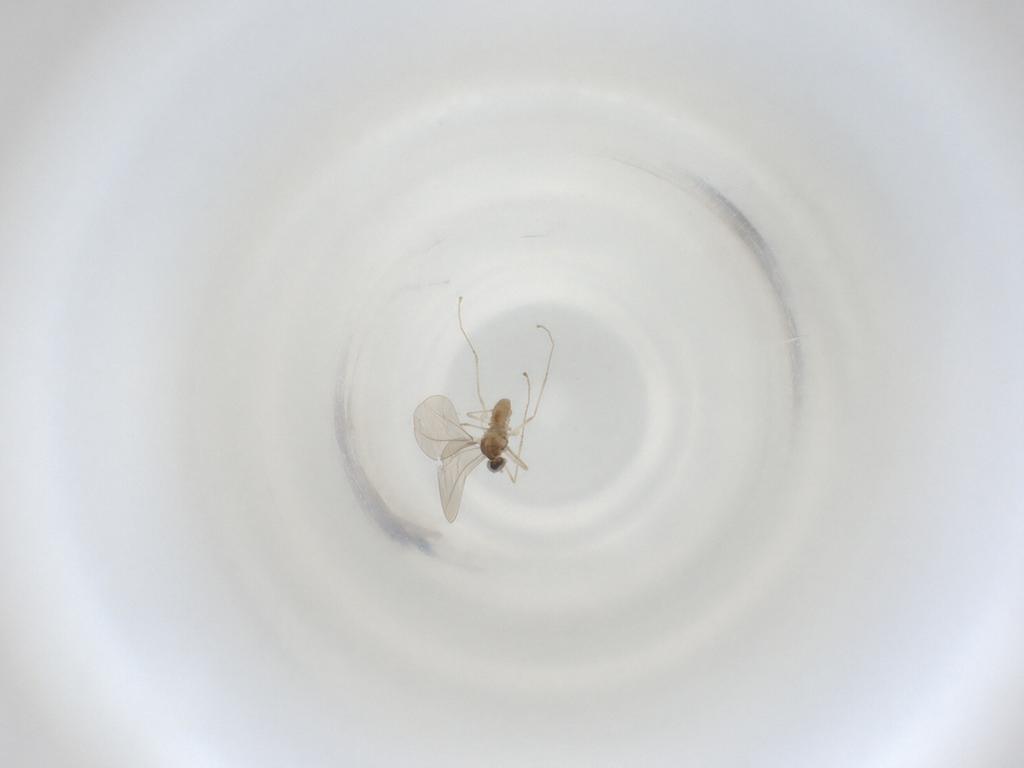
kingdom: Animalia
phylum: Arthropoda
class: Insecta
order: Diptera
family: Cecidomyiidae
